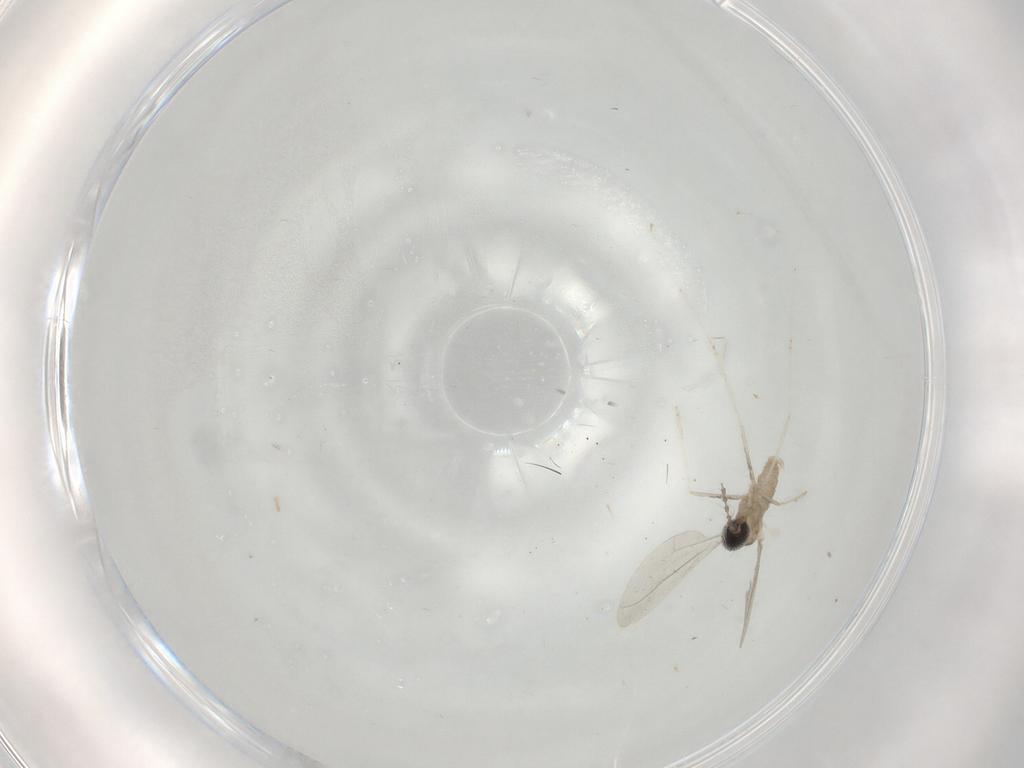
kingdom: Animalia
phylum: Arthropoda
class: Insecta
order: Diptera
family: Cecidomyiidae
